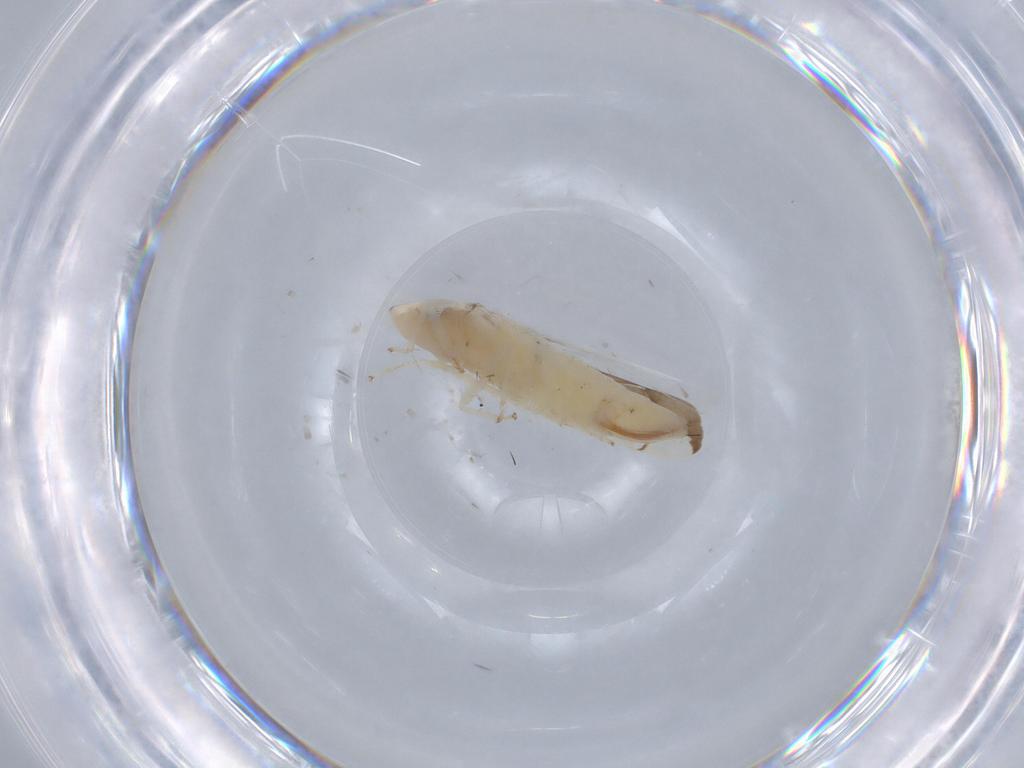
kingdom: Animalia
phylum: Arthropoda
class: Insecta
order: Hemiptera
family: Cicadellidae
